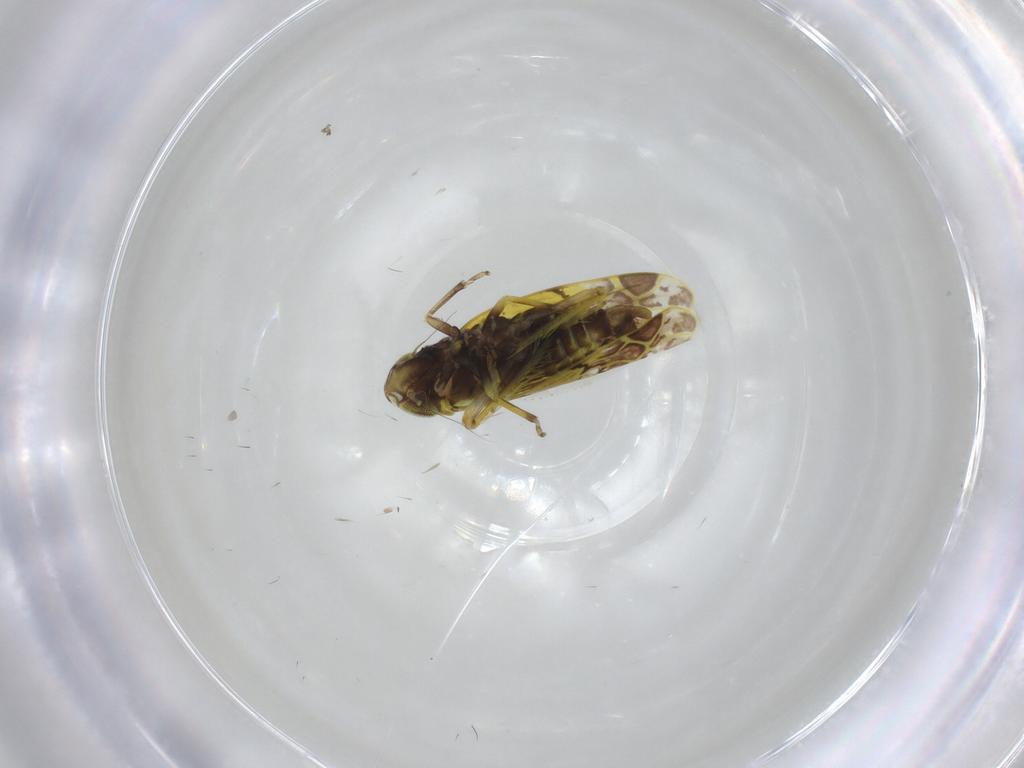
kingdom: Animalia
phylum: Arthropoda
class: Insecta
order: Hemiptera
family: Cicadellidae
